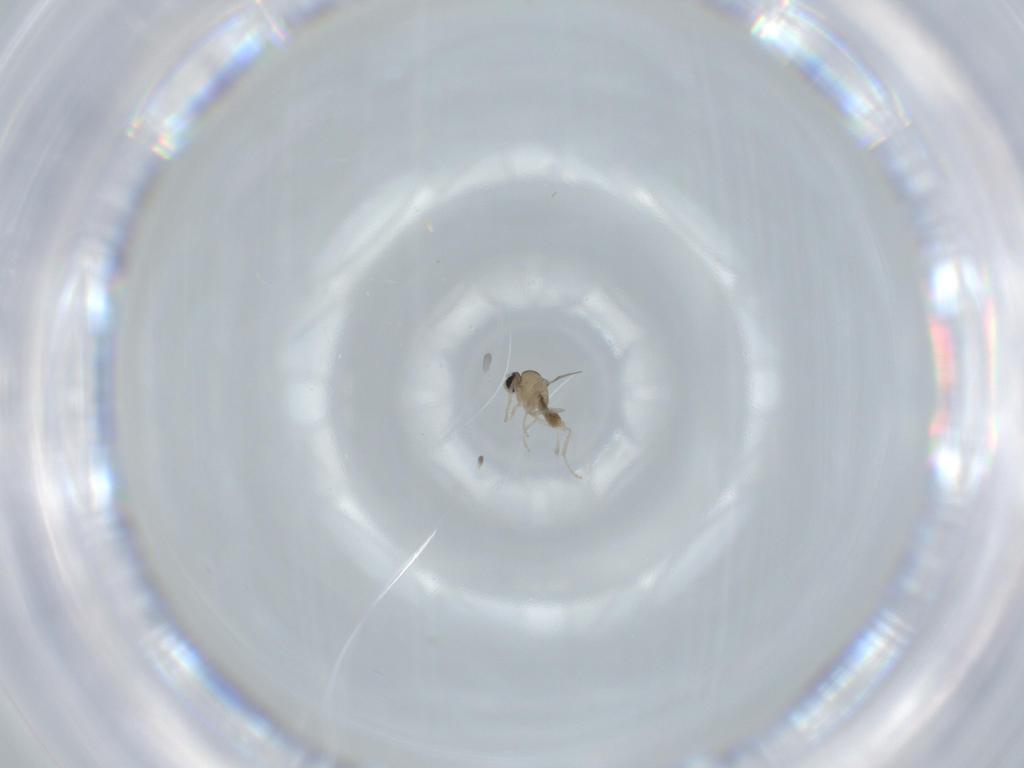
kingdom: Animalia
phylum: Arthropoda
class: Insecta
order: Diptera
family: Cecidomyiidae
